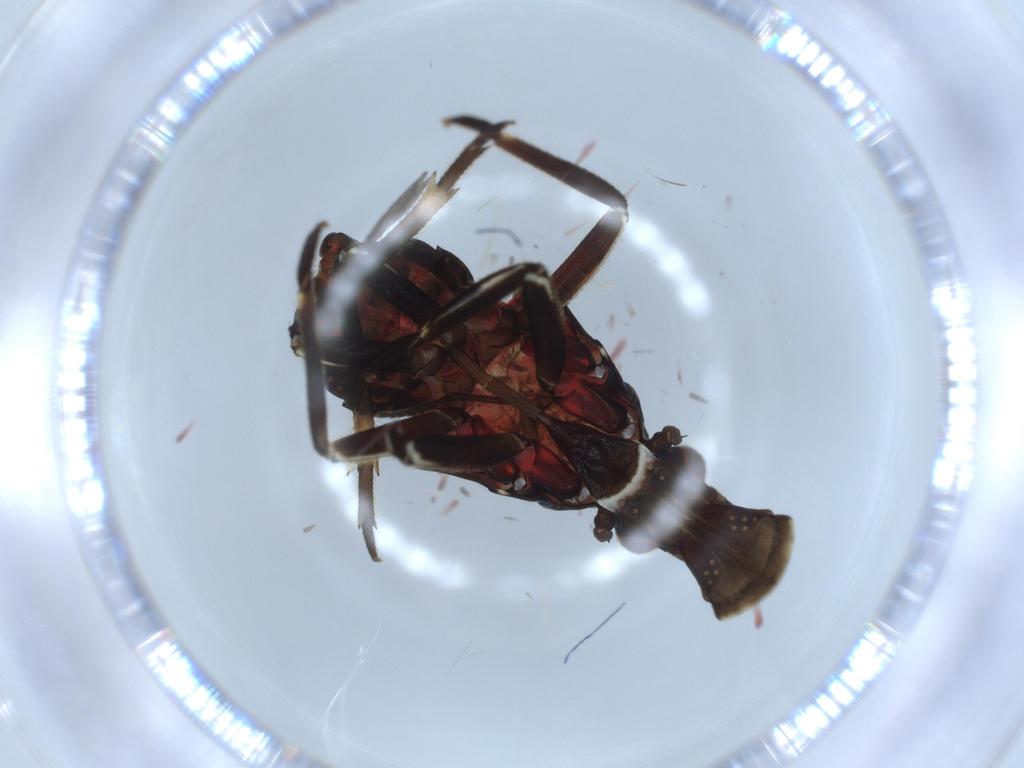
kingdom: Animalia
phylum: Arthropoda
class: Insecta
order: Hemiptera
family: Fulgoridae
